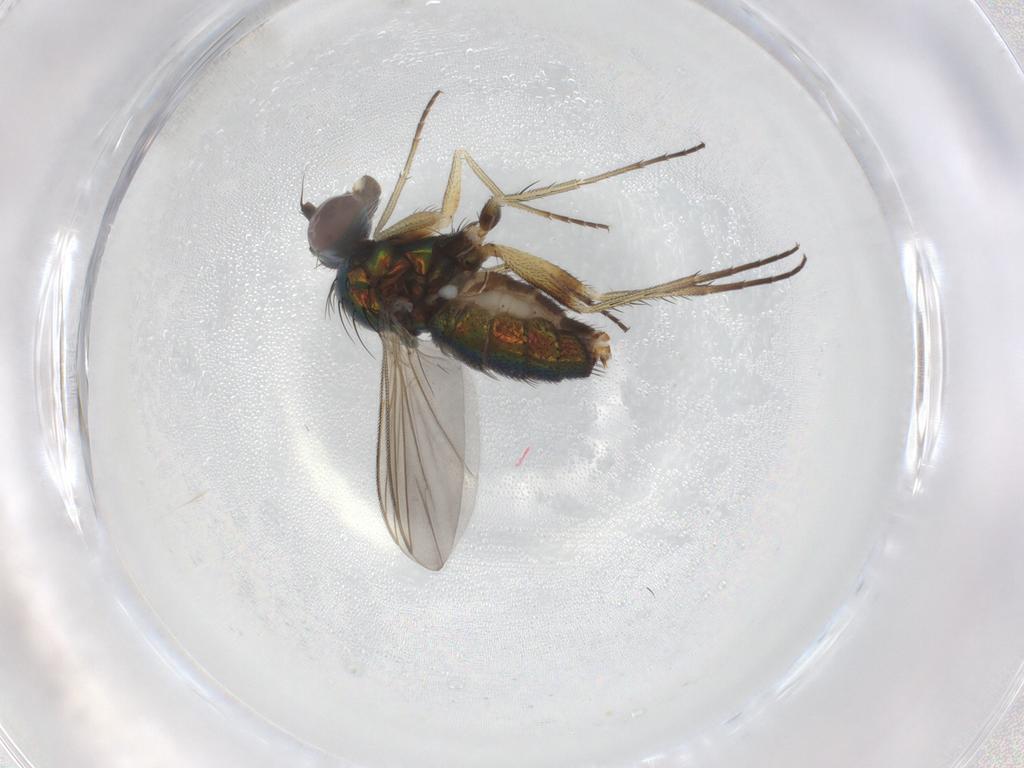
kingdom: Animalia
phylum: Arthropoda
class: Insecta
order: Diptera
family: Dolichopodidae
